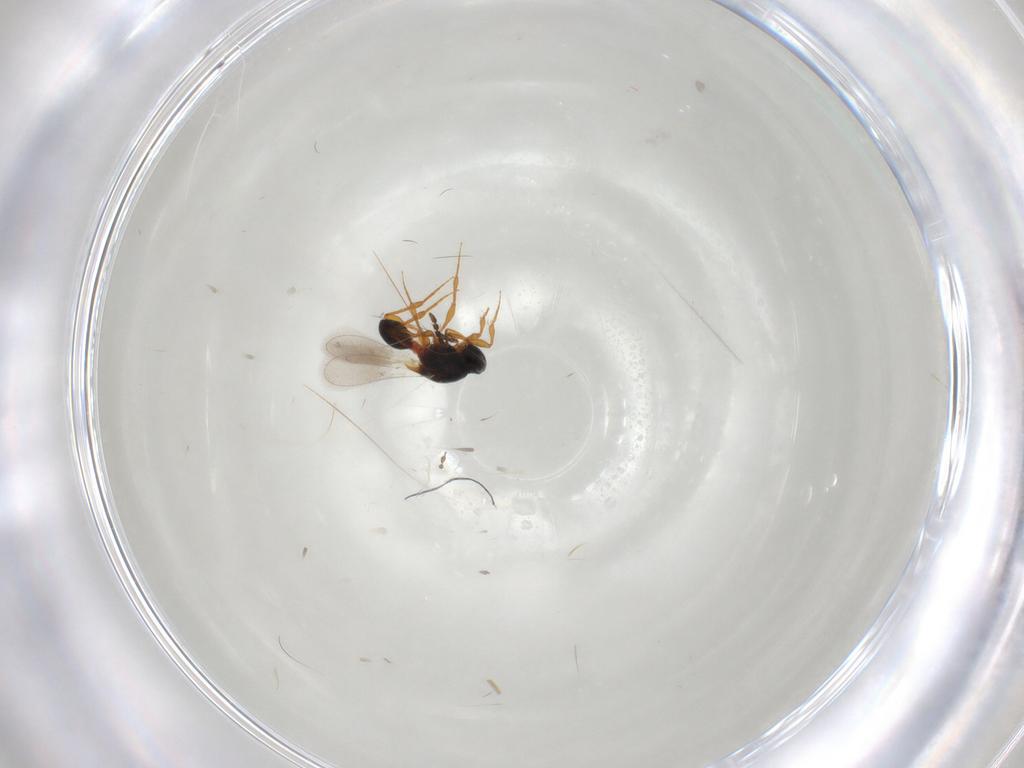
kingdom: Animalia
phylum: Arthropoda
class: Insecta
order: Hymenoptera
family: Platygastridae
